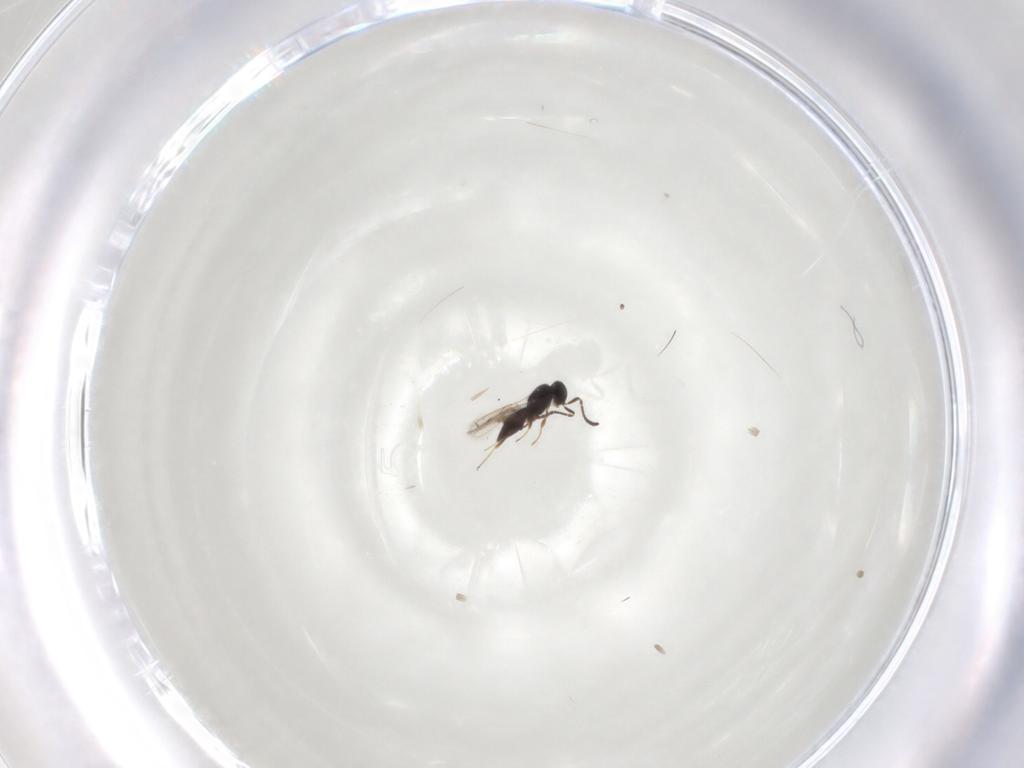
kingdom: Animalia
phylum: Arthropoda
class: Insecta
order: Hymenoptera
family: Scelionidae
